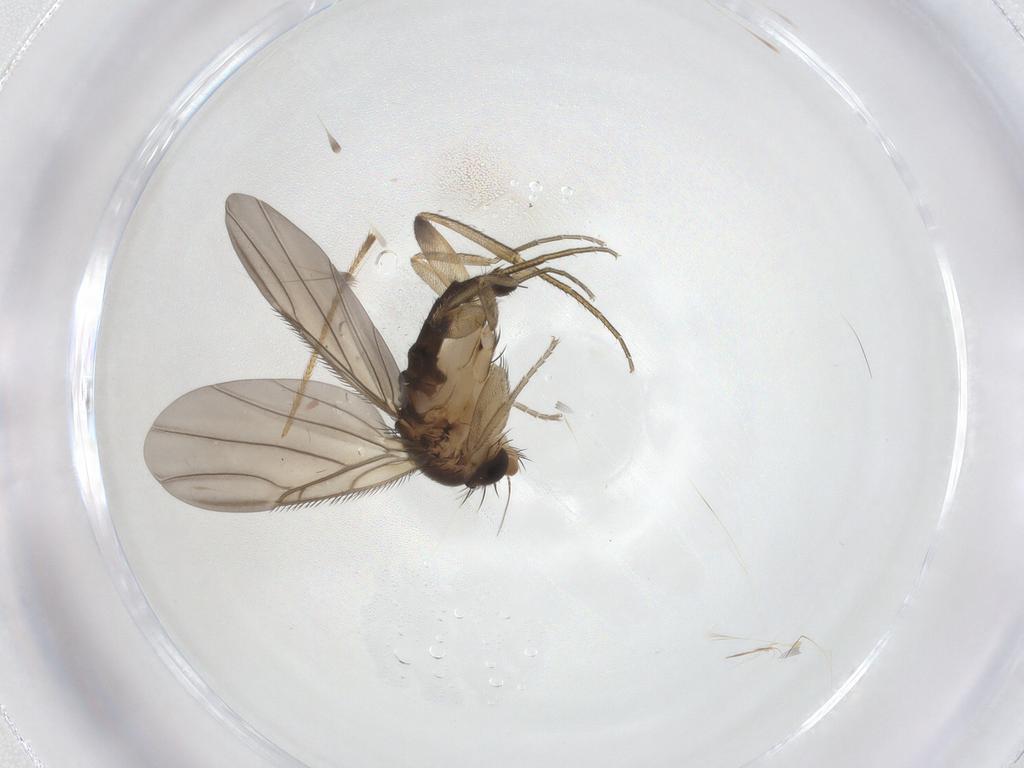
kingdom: Animalia
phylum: Arthropoda
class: Insecta
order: Diptera
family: Phoridae
